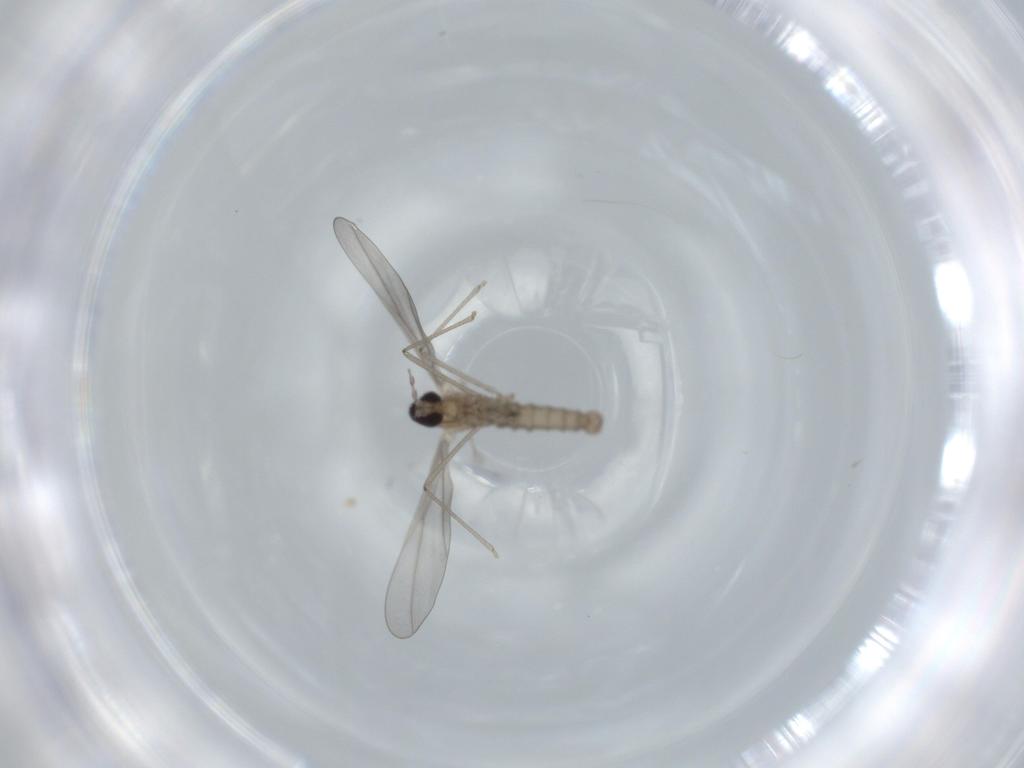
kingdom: Animalia
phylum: Arthropoda
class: Insecta
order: Diptera
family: Cecidomyiidae
